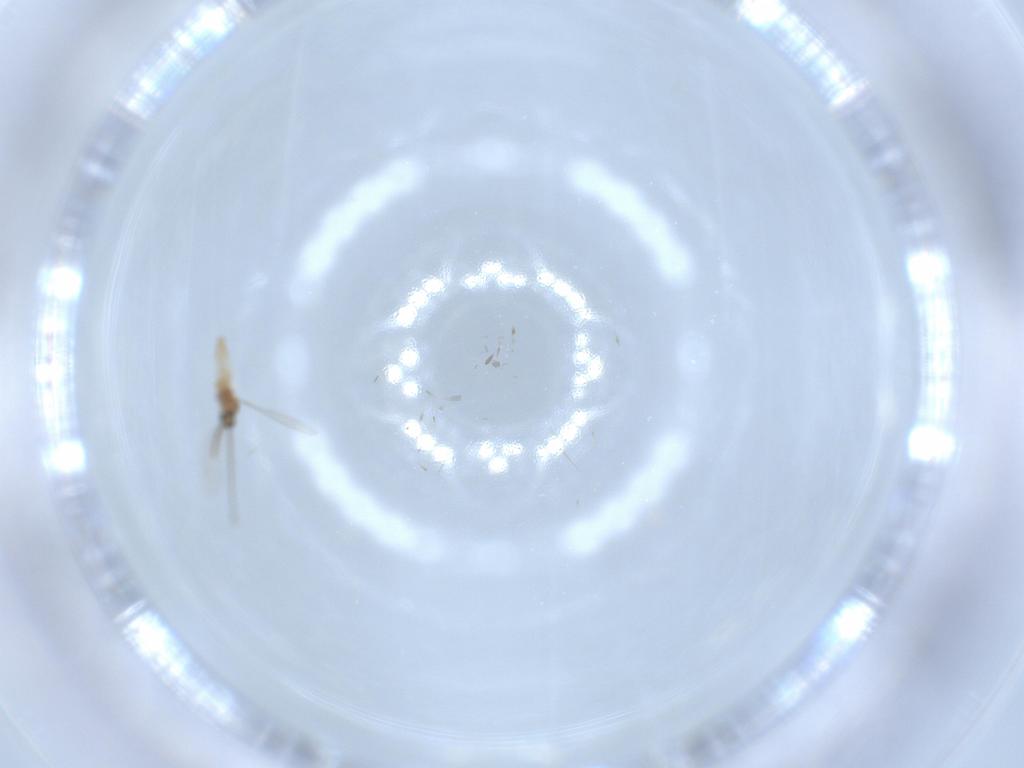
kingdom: Animalia
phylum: Arthropoda
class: Insecta
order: Diptera
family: Cecidomyiidae
